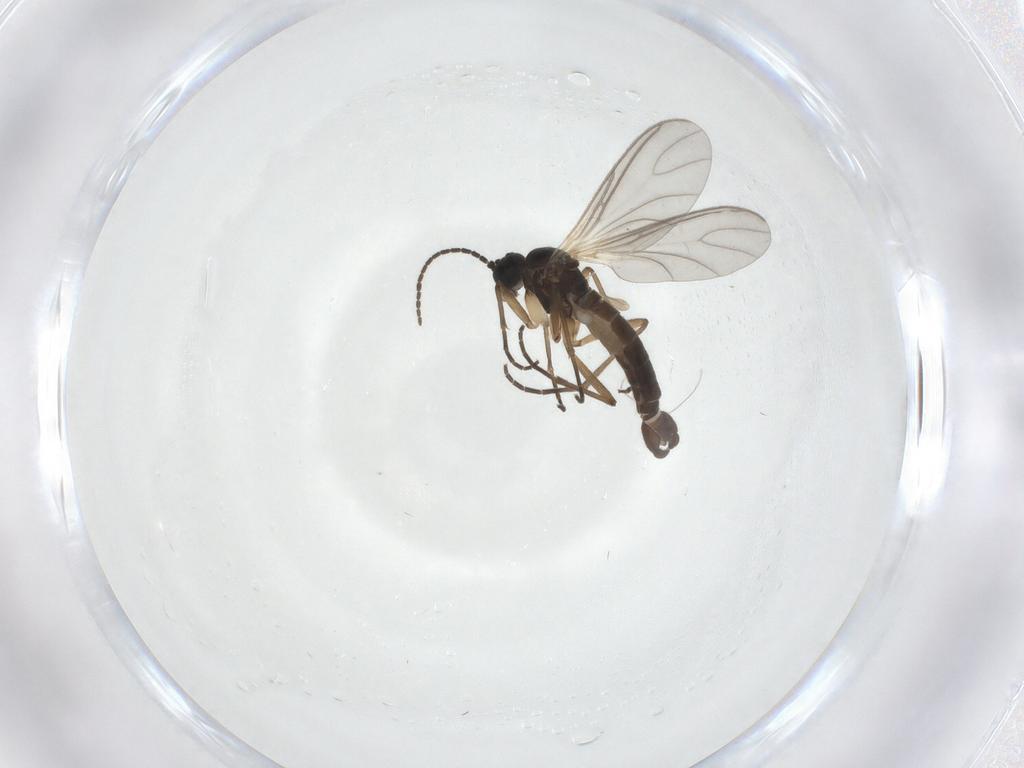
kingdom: Animalia
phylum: Arthropoda
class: Insecta
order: Diptera
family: Sciaridae
